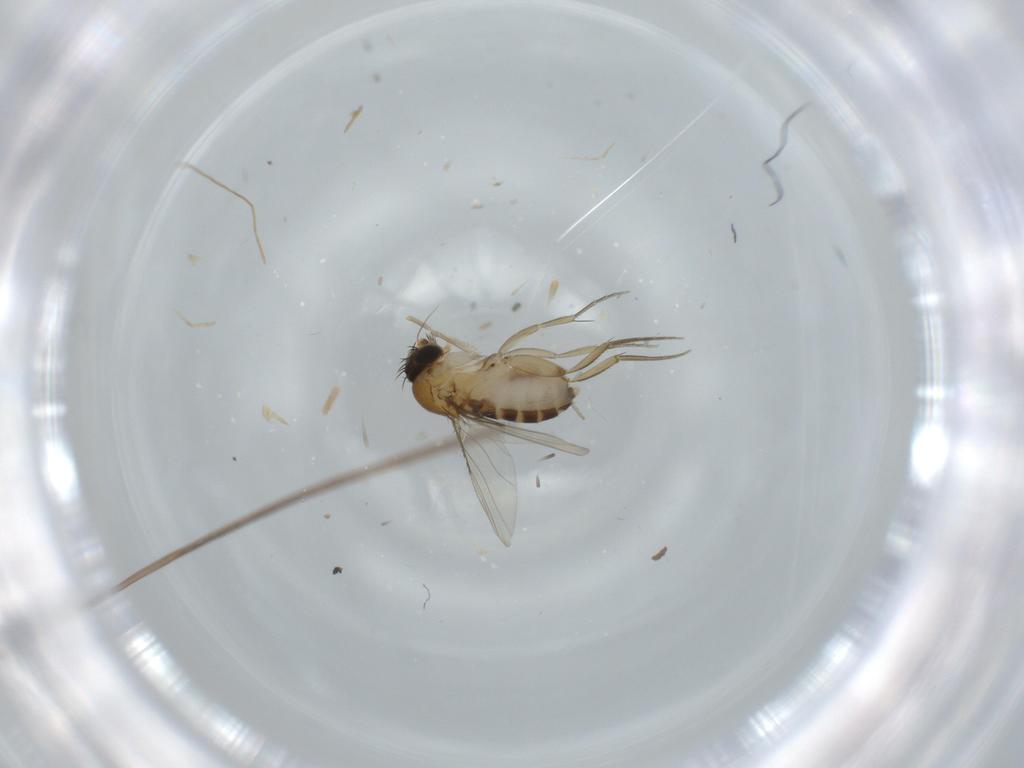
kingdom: Animalia
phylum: Arthropoda
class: Insecta
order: Diptera
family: Phoridae
